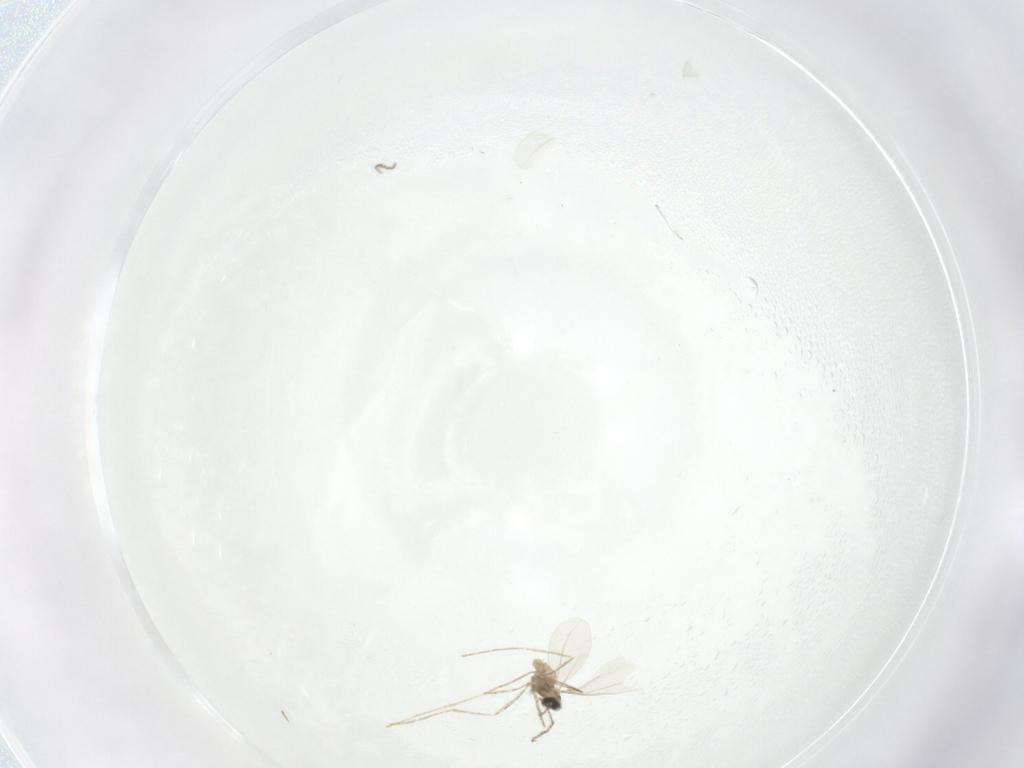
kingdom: Animalia
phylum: Arthropoda
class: Insecta
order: Diptera
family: Cecidomyiidae
